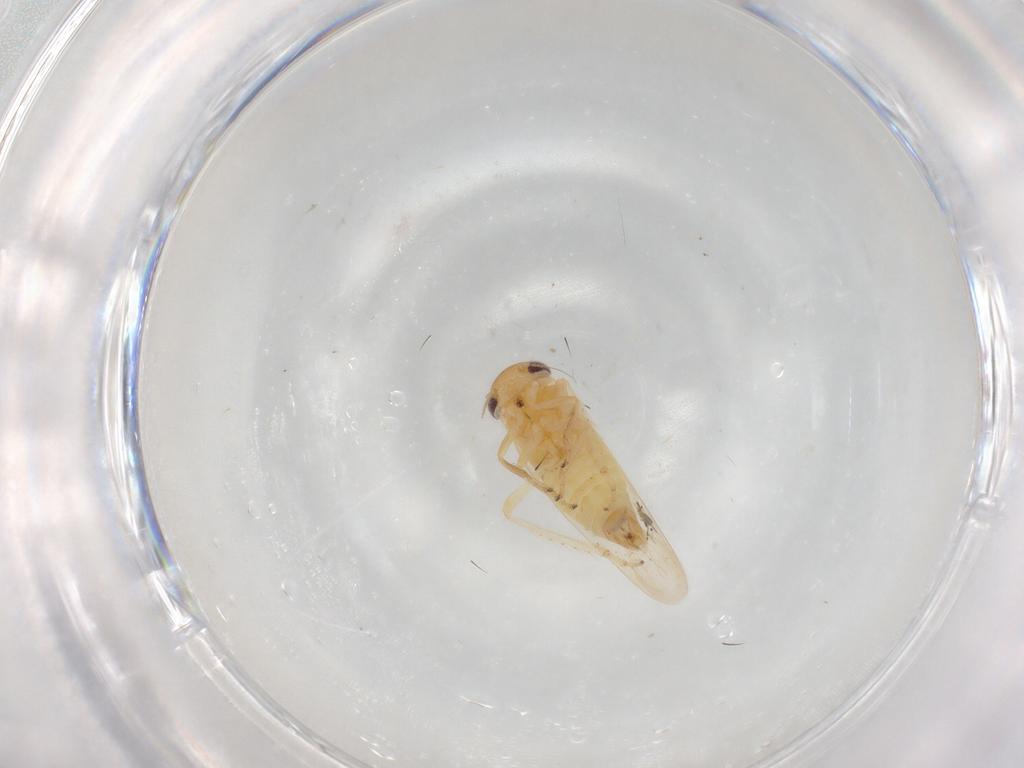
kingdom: Animalia
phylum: Arthropoda
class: Insecta
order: Hemiptera
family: Cicadellidae
